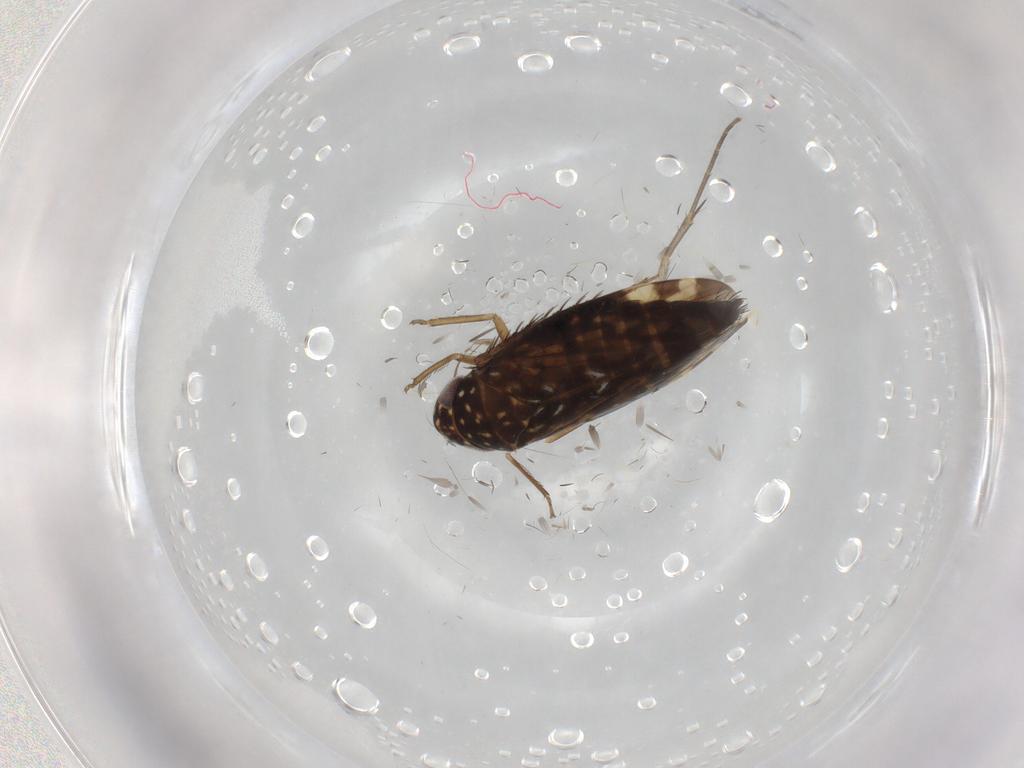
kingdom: Animalia
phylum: Arthropoda
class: Insecta
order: Hemiptera
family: Cicadellidae
